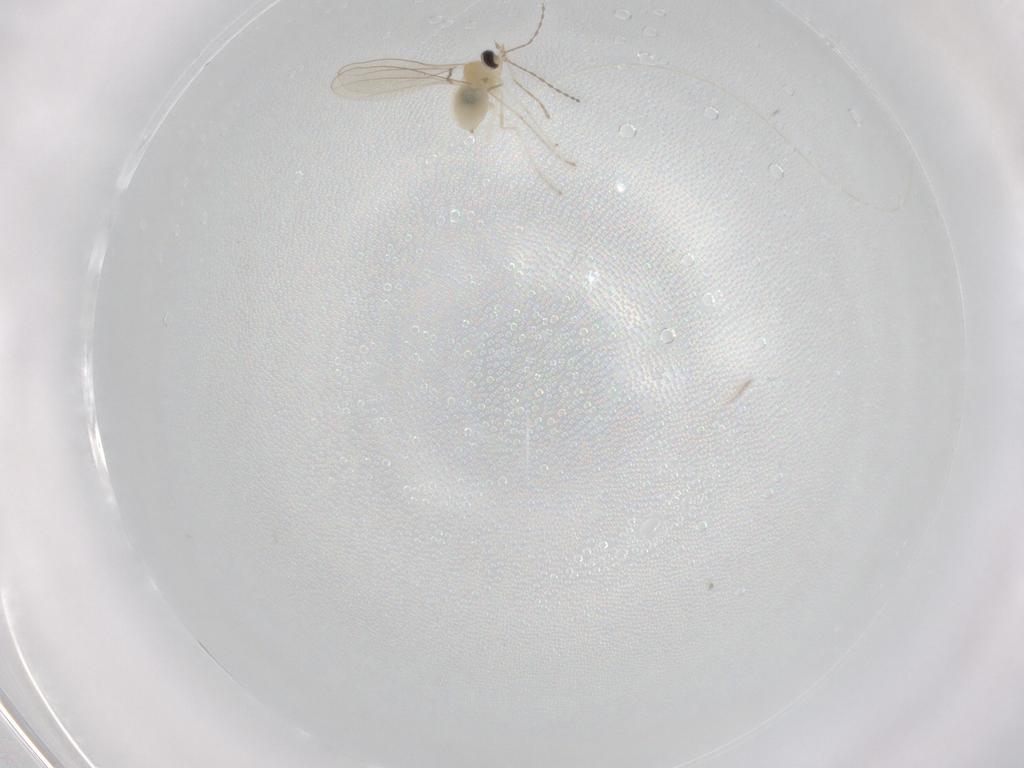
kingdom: Animalia
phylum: Arthropoda
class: Insecta
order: Diptera
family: Cecidomyiidae
